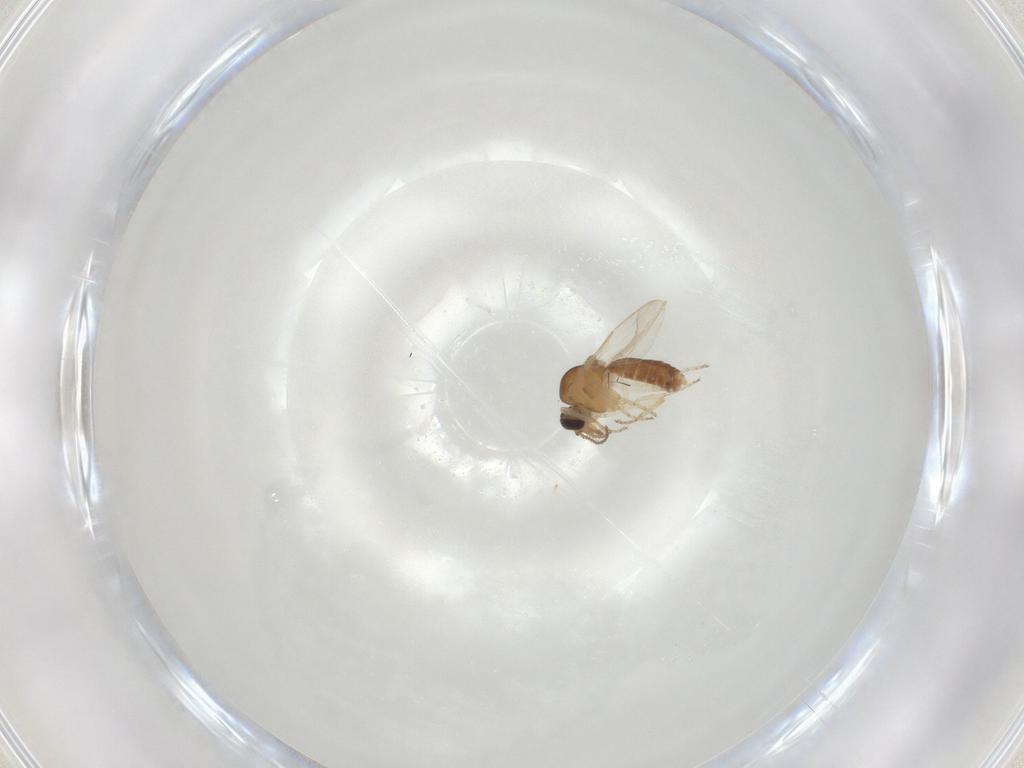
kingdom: Animalia
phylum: Arthropoda
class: Insecta
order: Diptera
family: Ceratopogonidae
